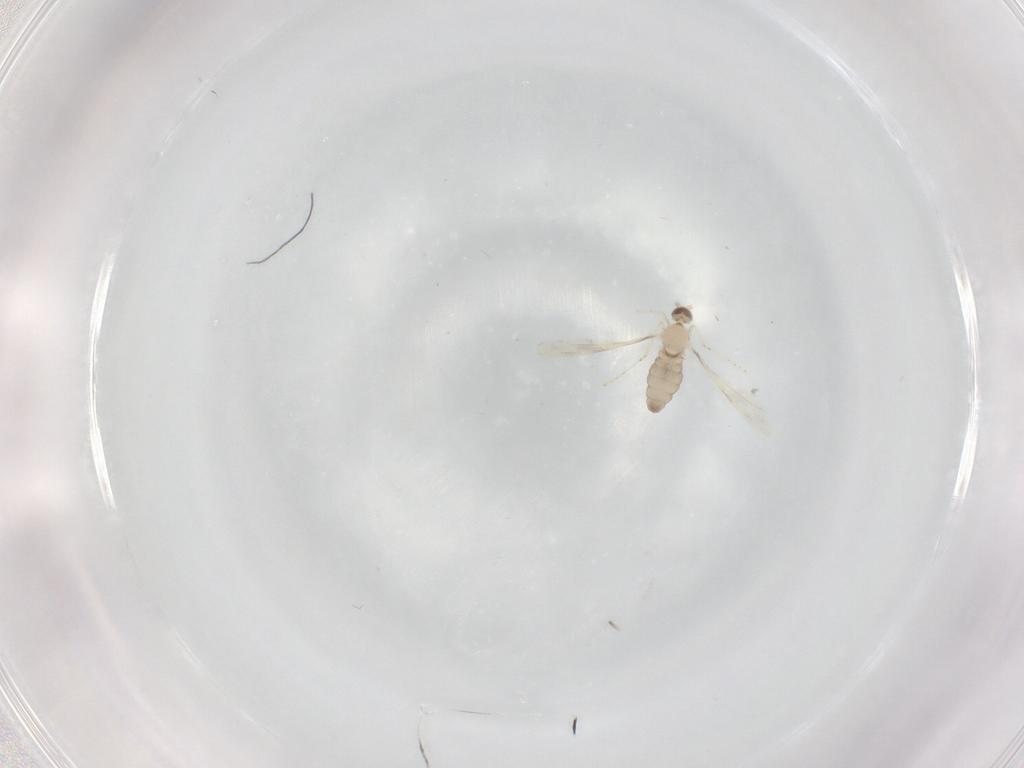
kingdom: Animalia
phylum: Arthropoda
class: Insecta
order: Diptera
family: Cecidomyiidae
